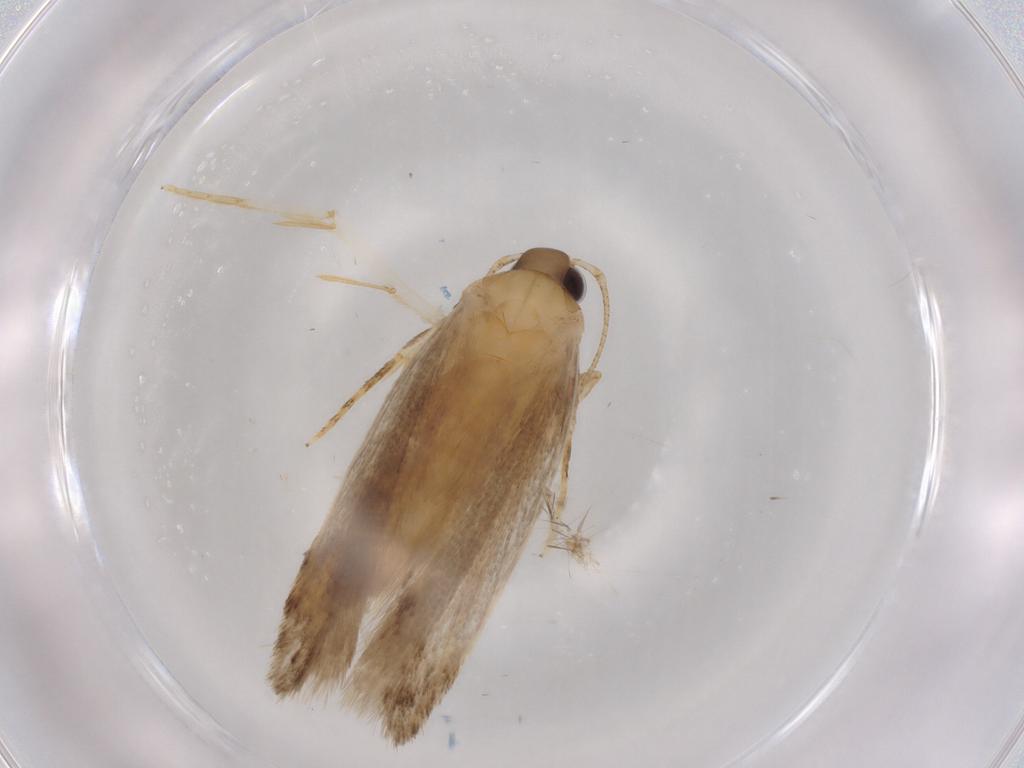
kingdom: Animalia
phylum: Arthropoda
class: Insecta
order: Lepidoptera
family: Autostichidae
